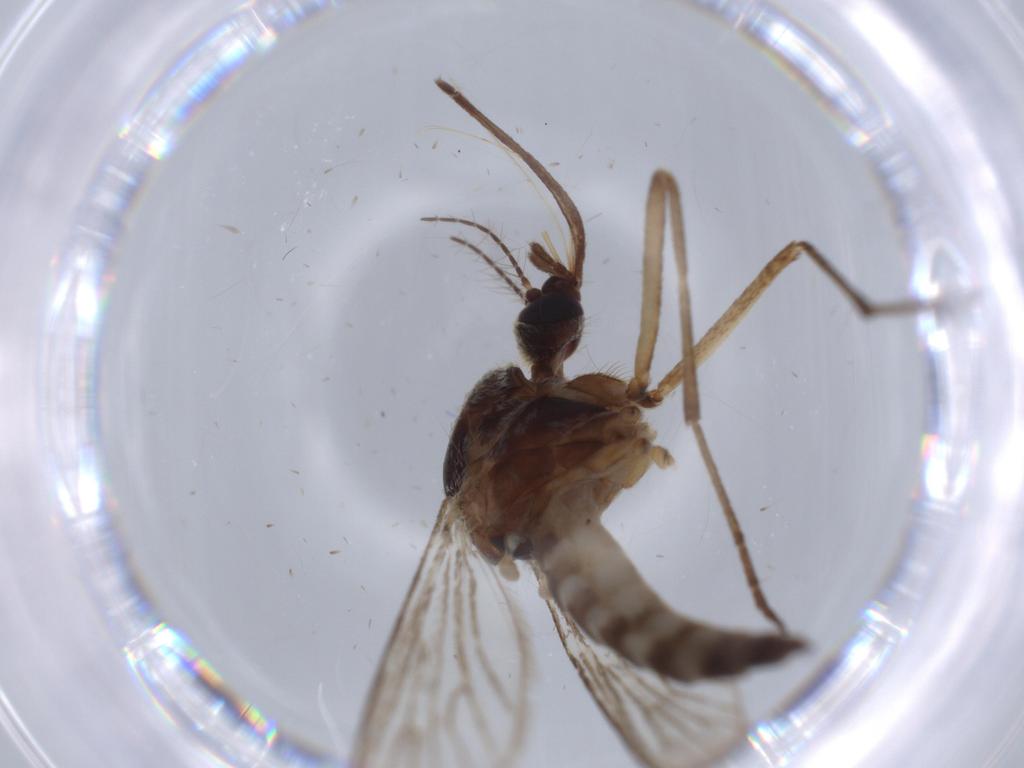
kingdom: Animalia
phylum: Arthropoda
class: Insecta
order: Diptera
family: Culicidae
